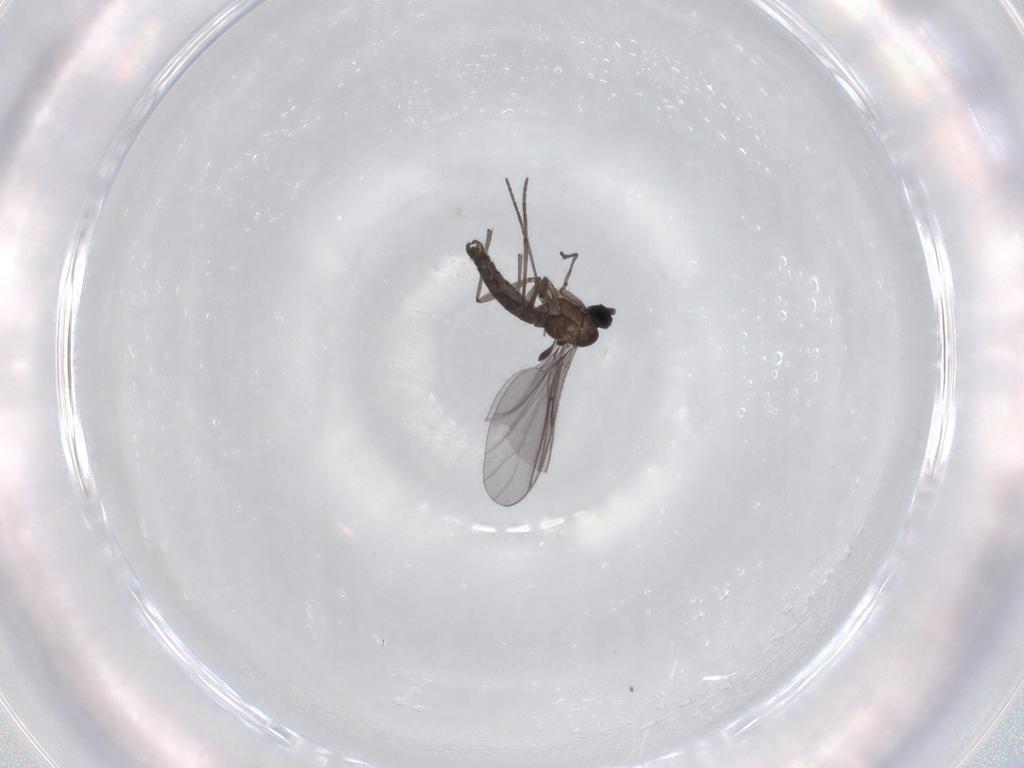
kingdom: Animalia
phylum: Arthropoda
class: Insecta
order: Diptera
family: Sciaridae
